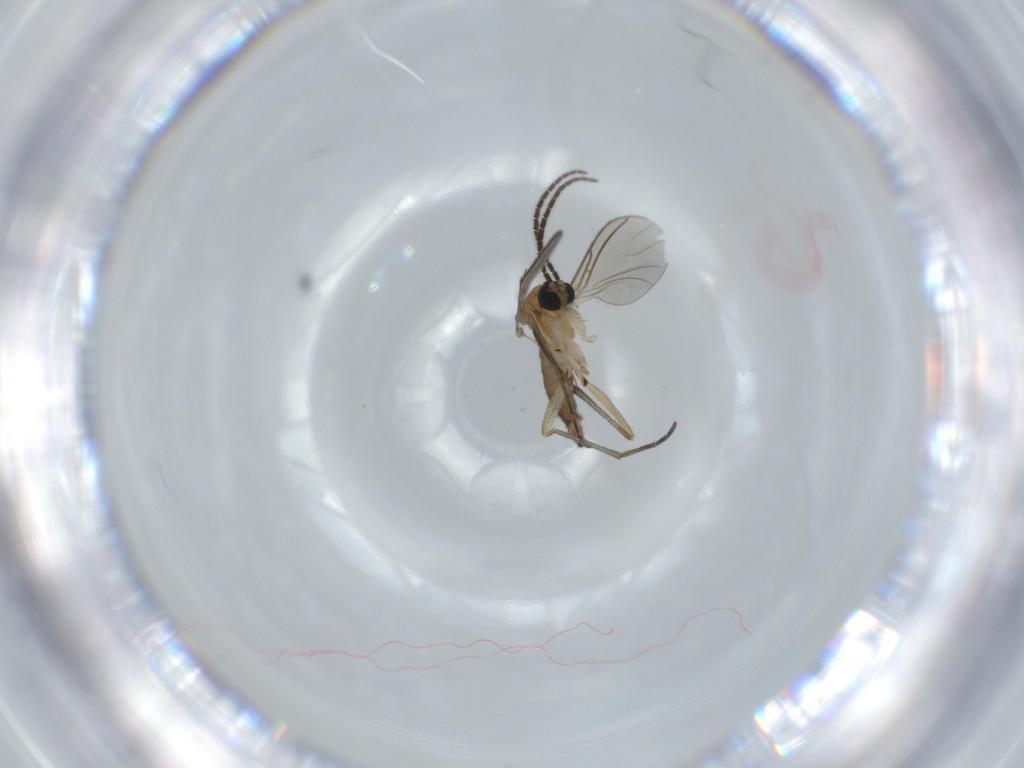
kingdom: Animalia
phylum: Arthropoda
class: Insecta
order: Diptera
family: Sciaridae
